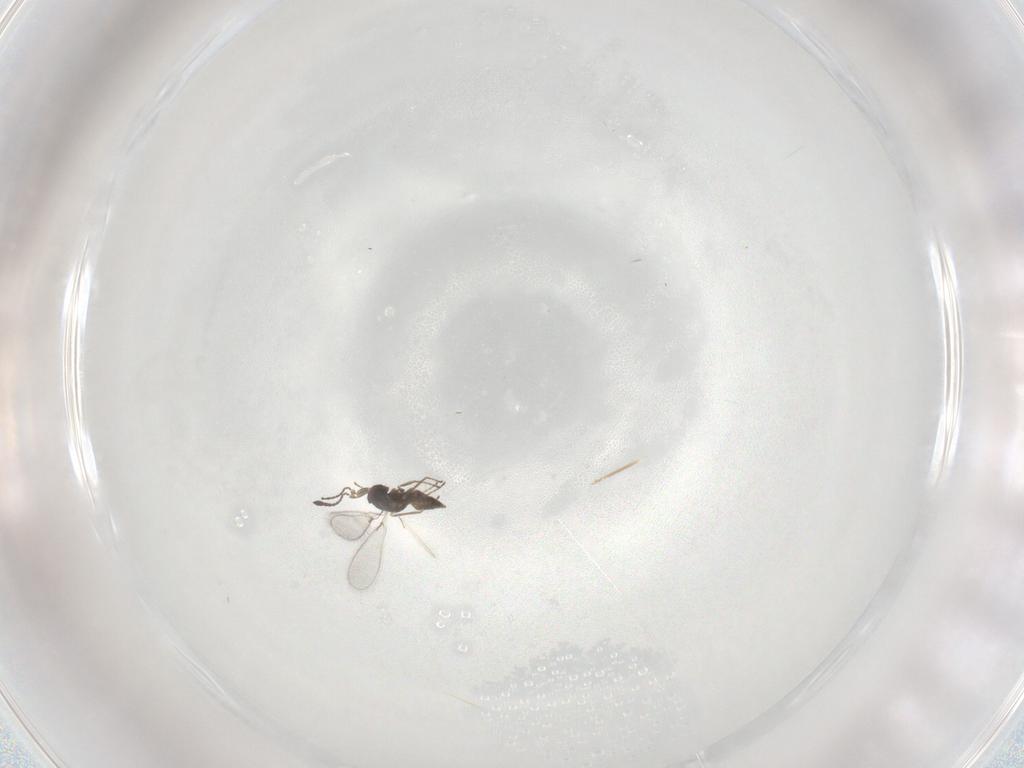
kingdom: Animalia
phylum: Arthropoda
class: Insecta
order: Hymenoptera
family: Mymaridae
